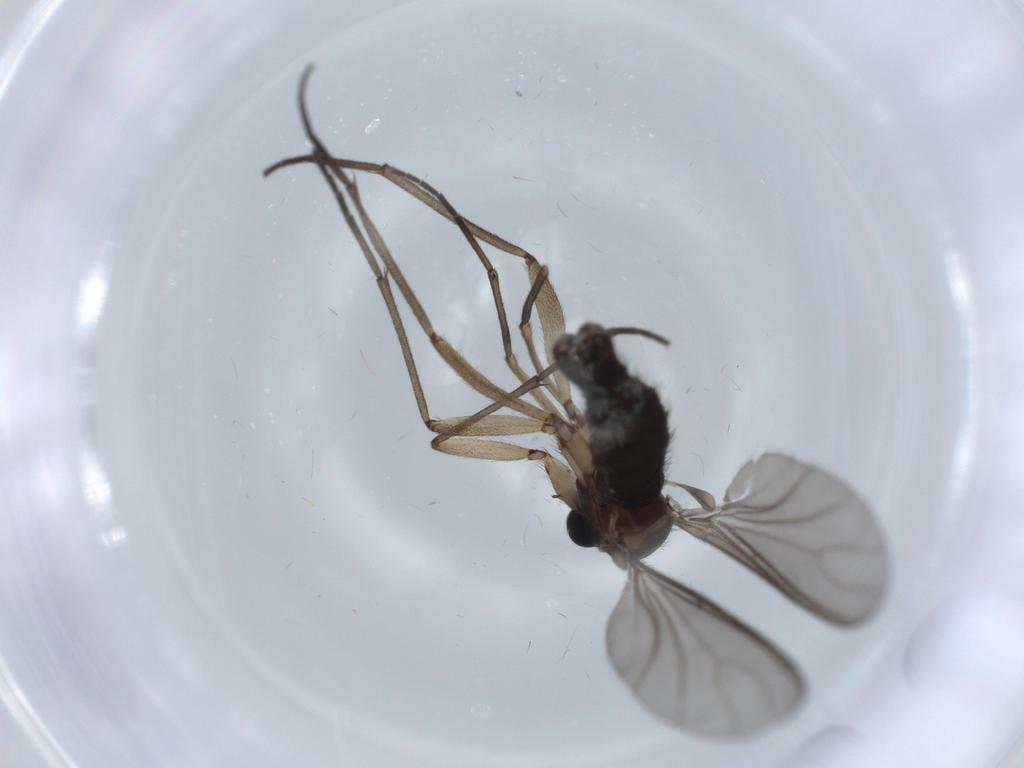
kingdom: Animalia
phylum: Arthropoda
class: Insecta
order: Diptera
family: Sciaridae
